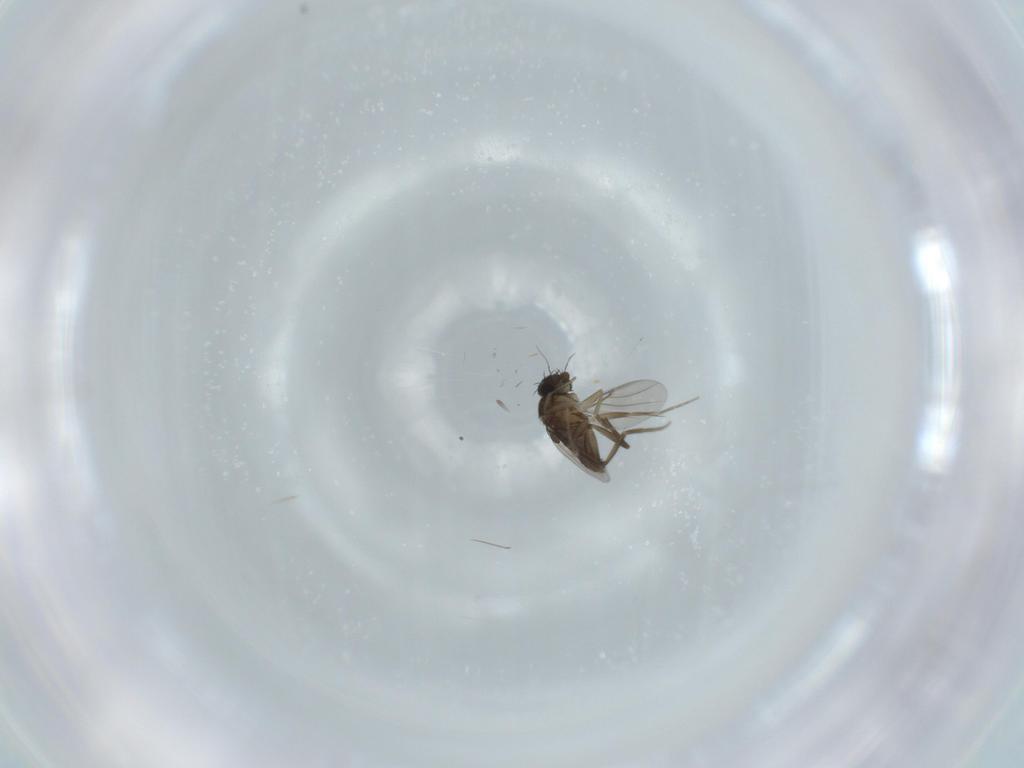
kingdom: Animalia
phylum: Arthropoda
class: Insecta
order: Diptera
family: Phoridae
